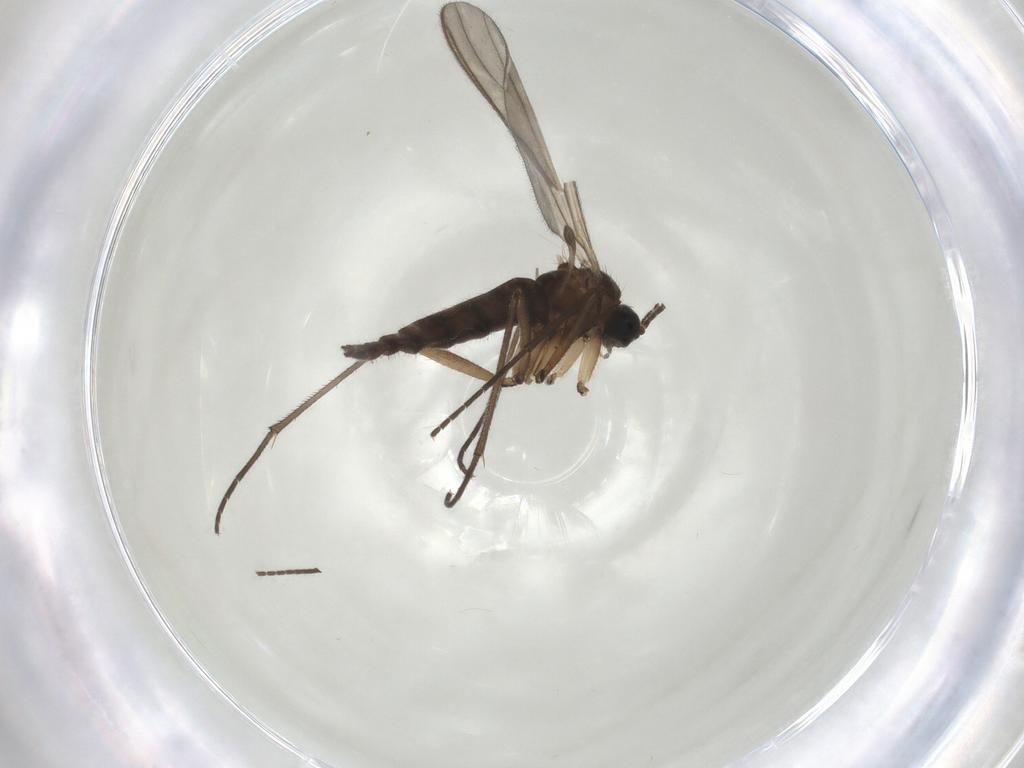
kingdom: Animalia
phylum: Arthropoda
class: Insecta
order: Diptera
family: Sciaridae
